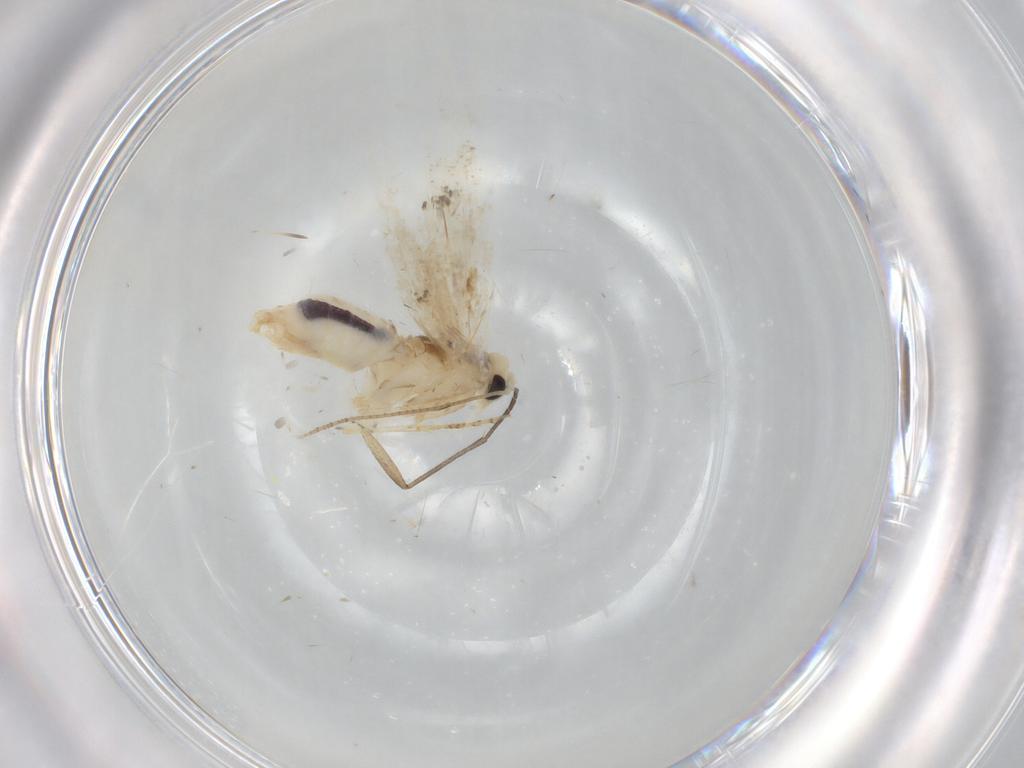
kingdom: Animalia
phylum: Arthropoda
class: Insecta
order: Lepidoptera
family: Bucculatricidae
